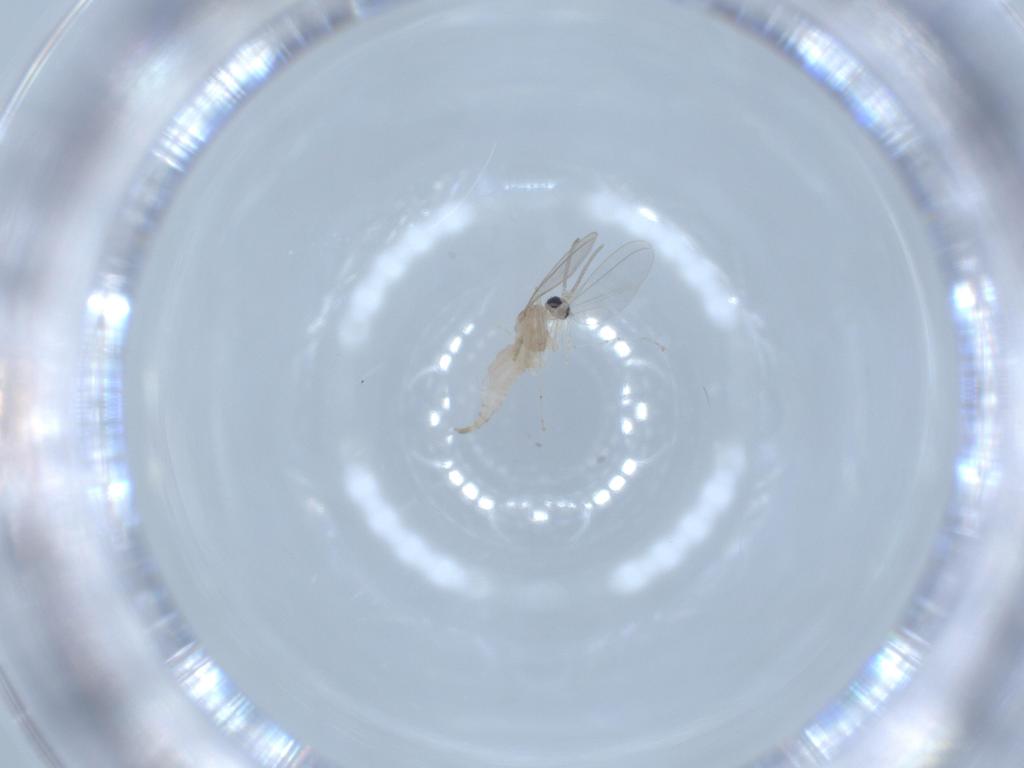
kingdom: Animalia
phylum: Arthropoda
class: Insecta
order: Diptera
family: Cecidomyiidae
